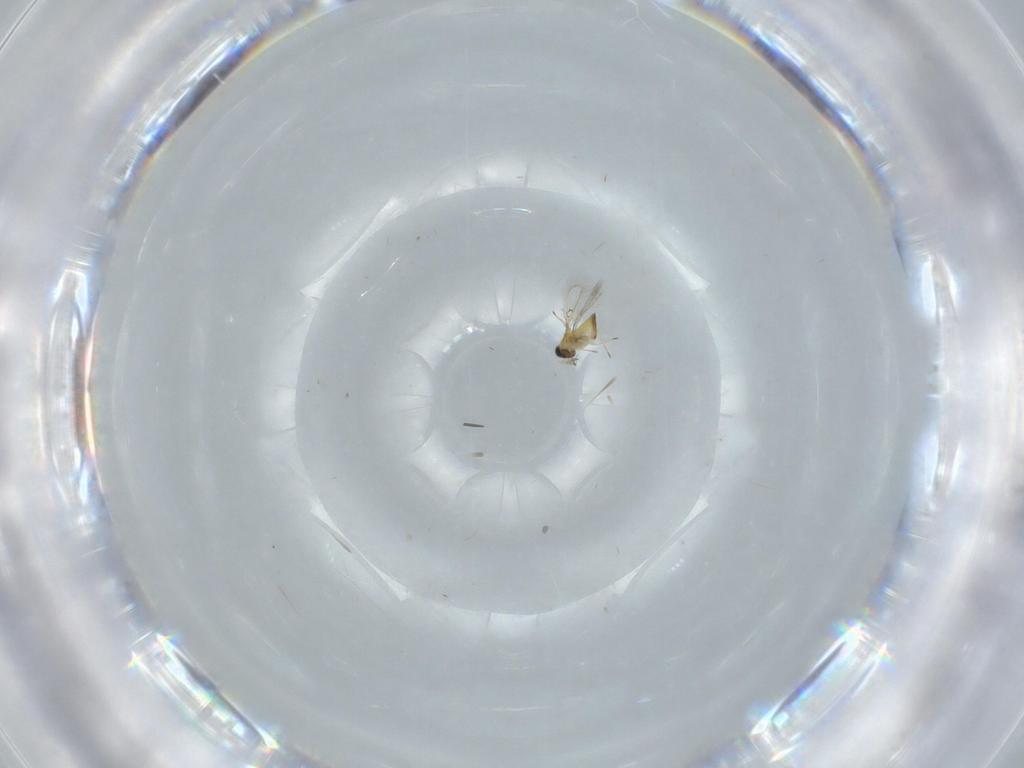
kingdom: Animalia
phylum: Arthropoda
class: Insecta
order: Hymenoptera
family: Trichogrammatidae
